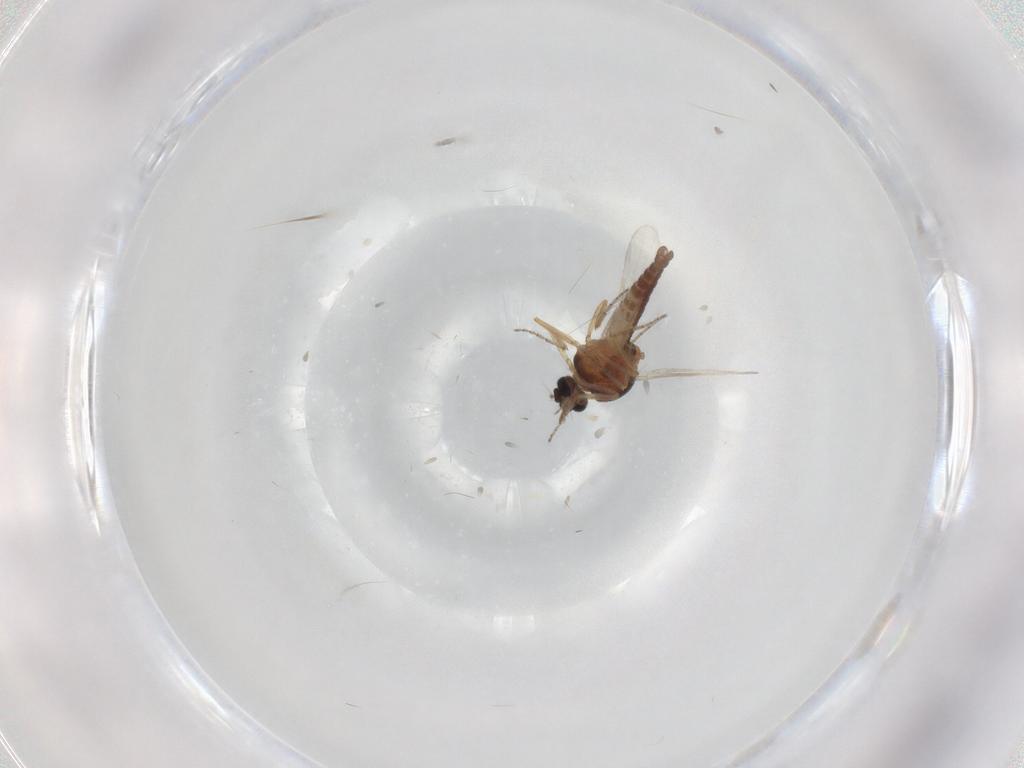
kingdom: Animalia
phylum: Arthropoda
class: Insecta
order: Diptera
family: Ceratopogonidae
